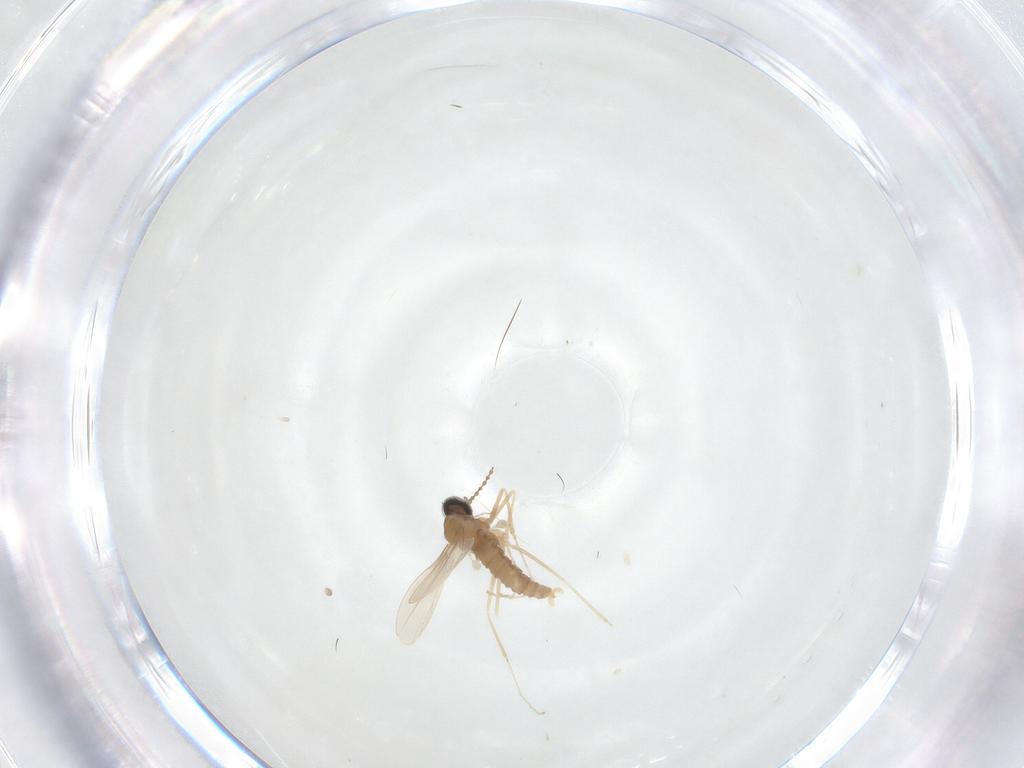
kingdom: Animalia
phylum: Arthropoda
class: Insecta
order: Diptera
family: Cecidomyiidae
